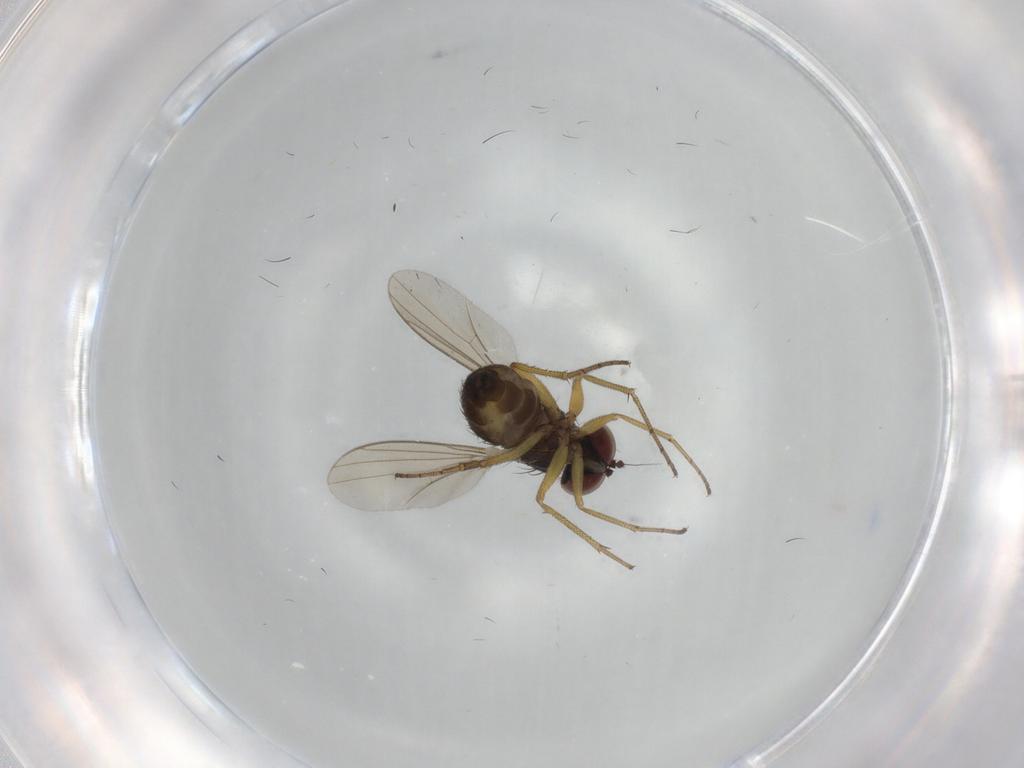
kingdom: Animalia
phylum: Arthropoda
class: Insecta
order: Diptera
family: Dolichopodidae
